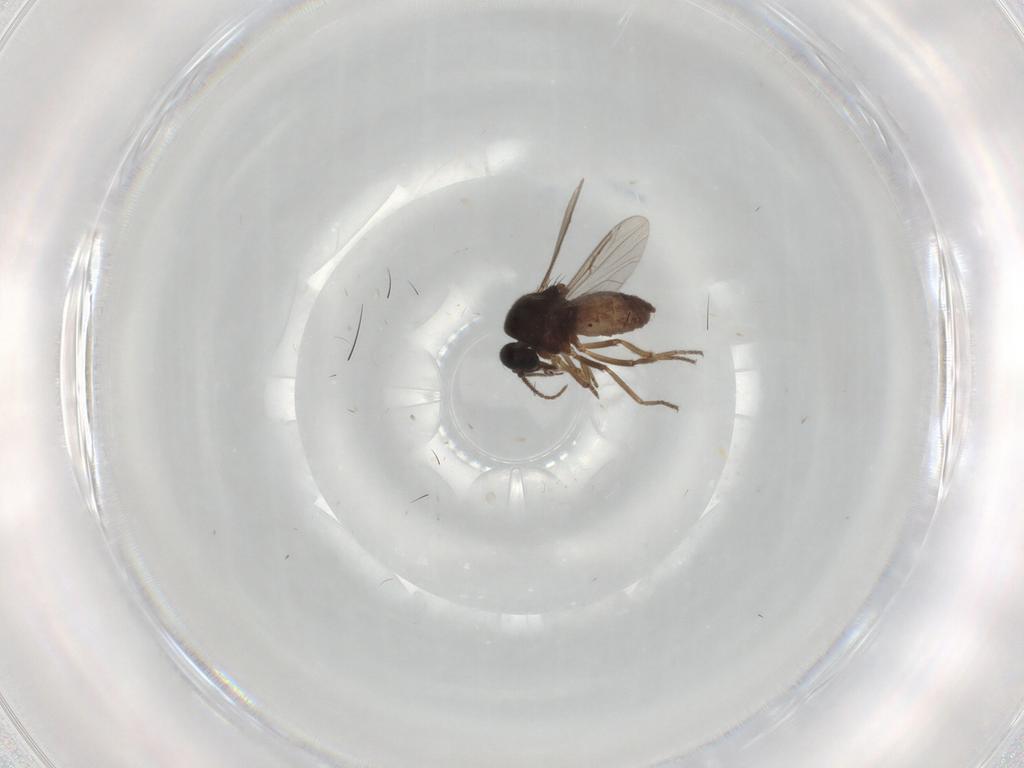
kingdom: Animalia
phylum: Arthropoda
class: Insecta
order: Diptera
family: Ceratopogonidae
